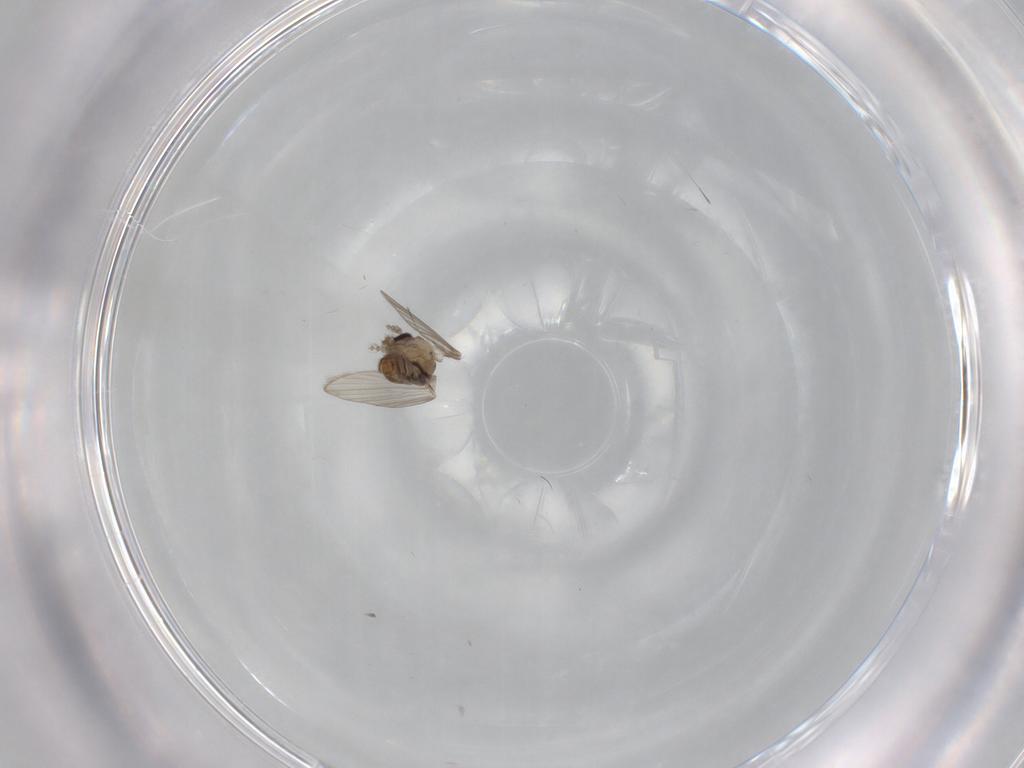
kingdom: Animalia
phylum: Arthropoda
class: Insecta
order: Diptera
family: Psychodidae
